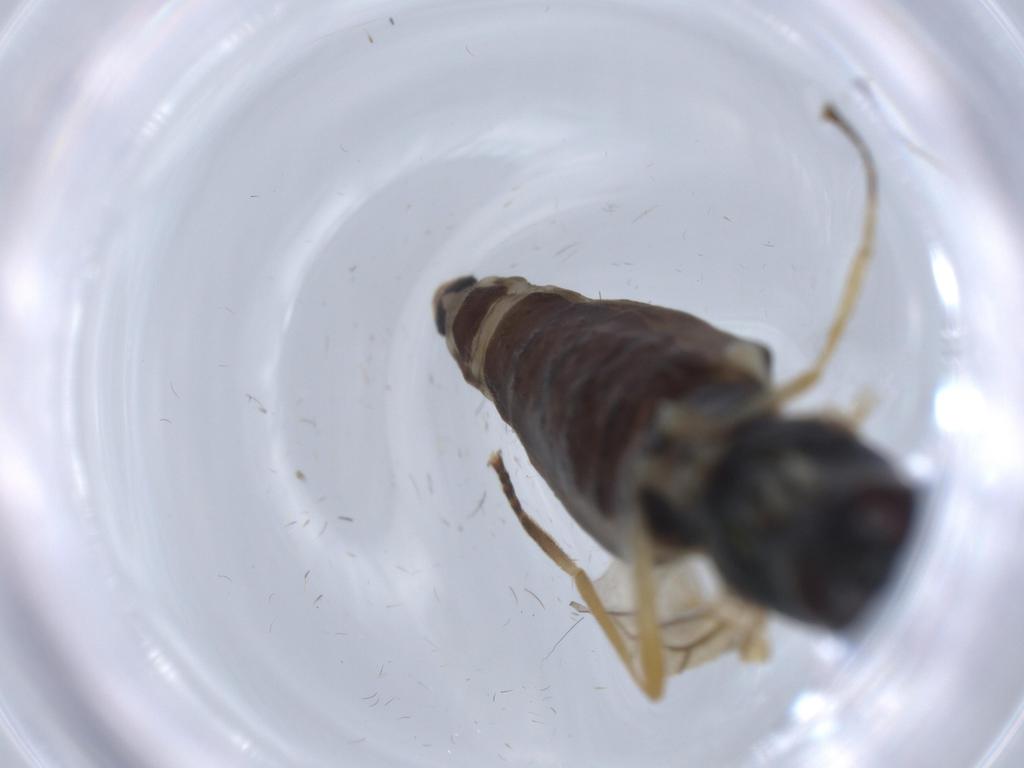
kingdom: Animalia
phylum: Arthropoda
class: Insecta
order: Diptera
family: Stratiomyidae
